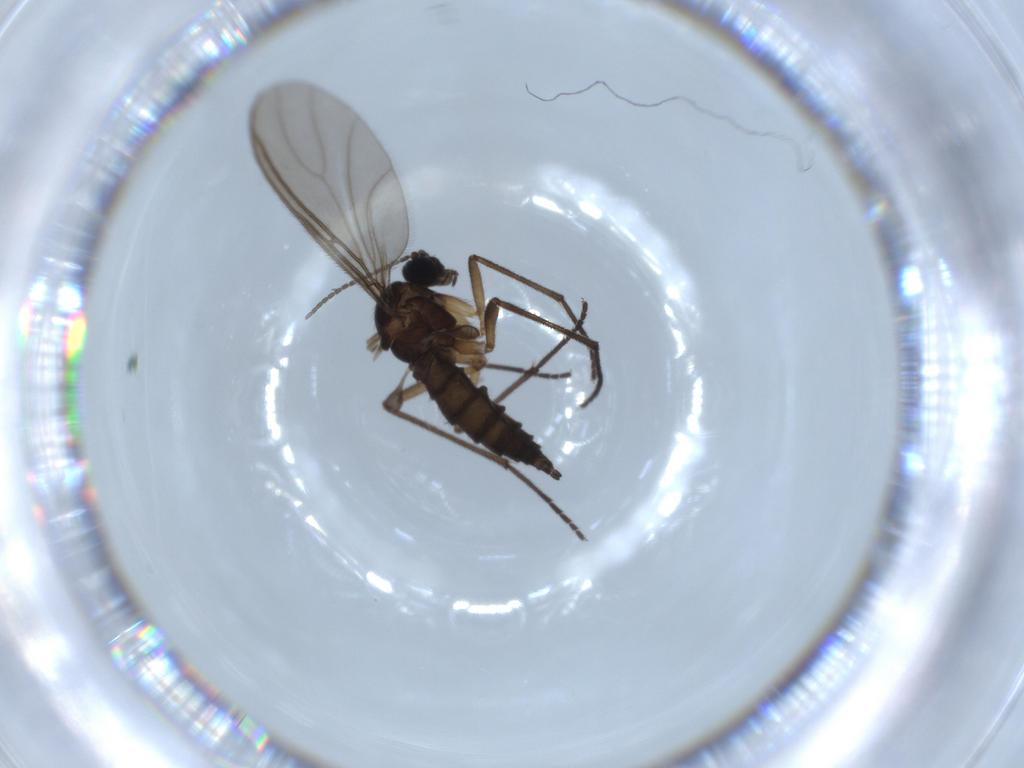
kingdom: Animalia
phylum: Arthropoda
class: Insecta
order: Diptera
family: Sciaridae
